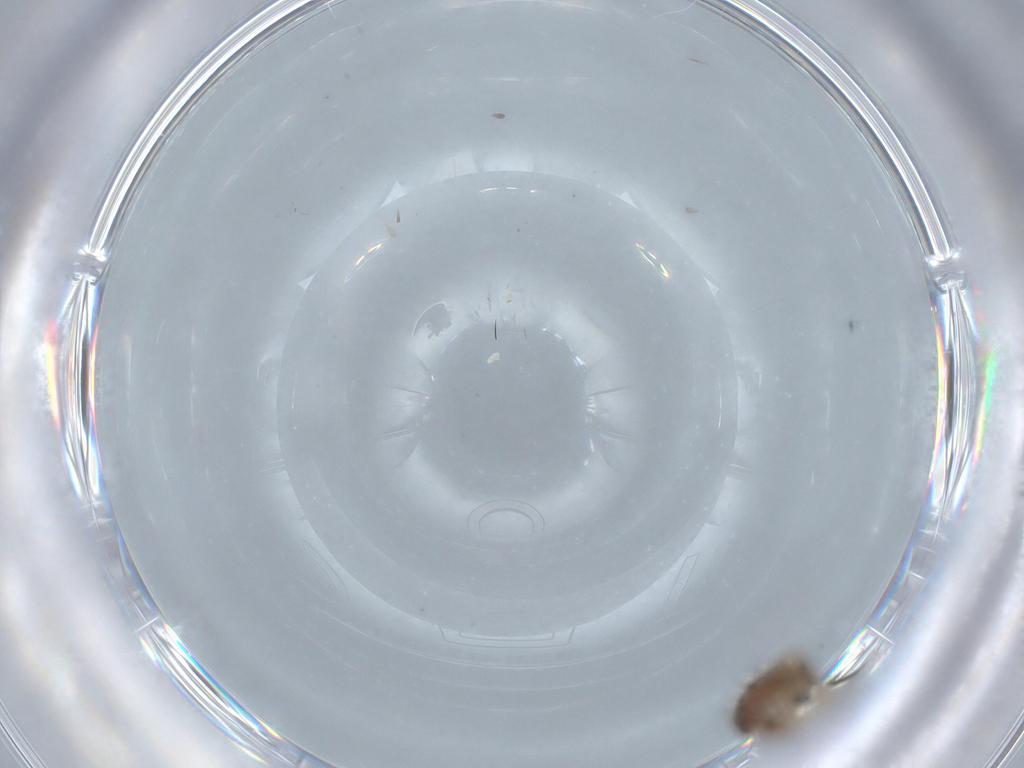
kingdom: Animalia
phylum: Arthropoda
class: Insecta
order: Diptera
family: Ceratopogonidae
